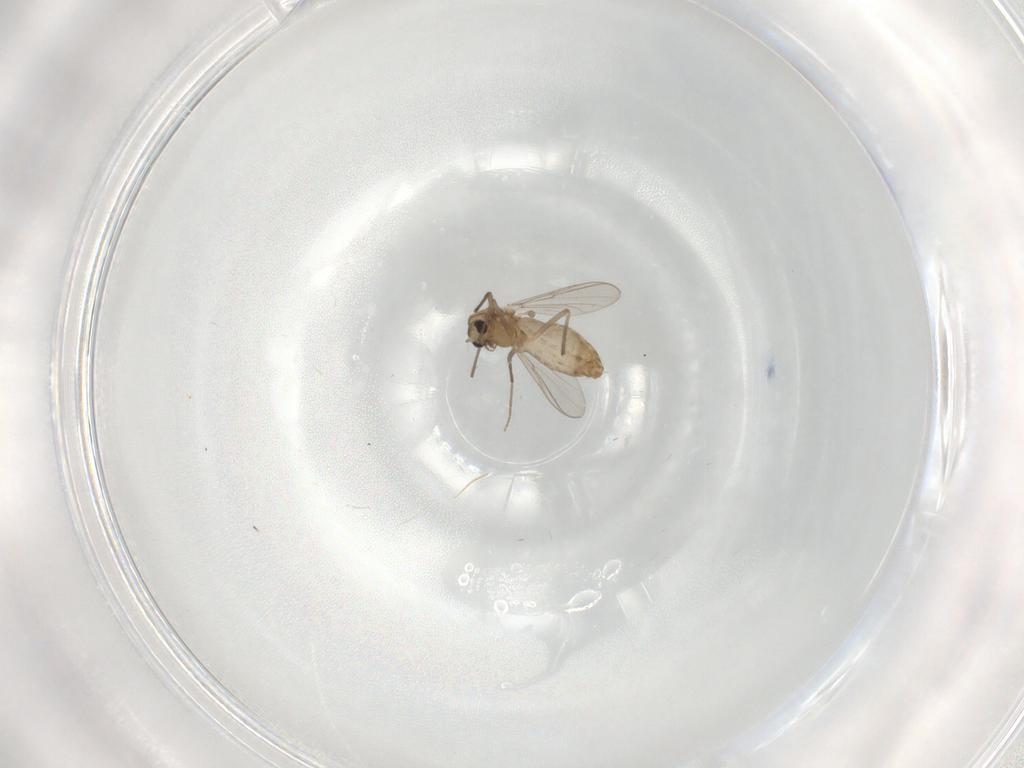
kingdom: Animalia
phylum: Arthropoda
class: Insecta
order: Diptera
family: Chironomidae
